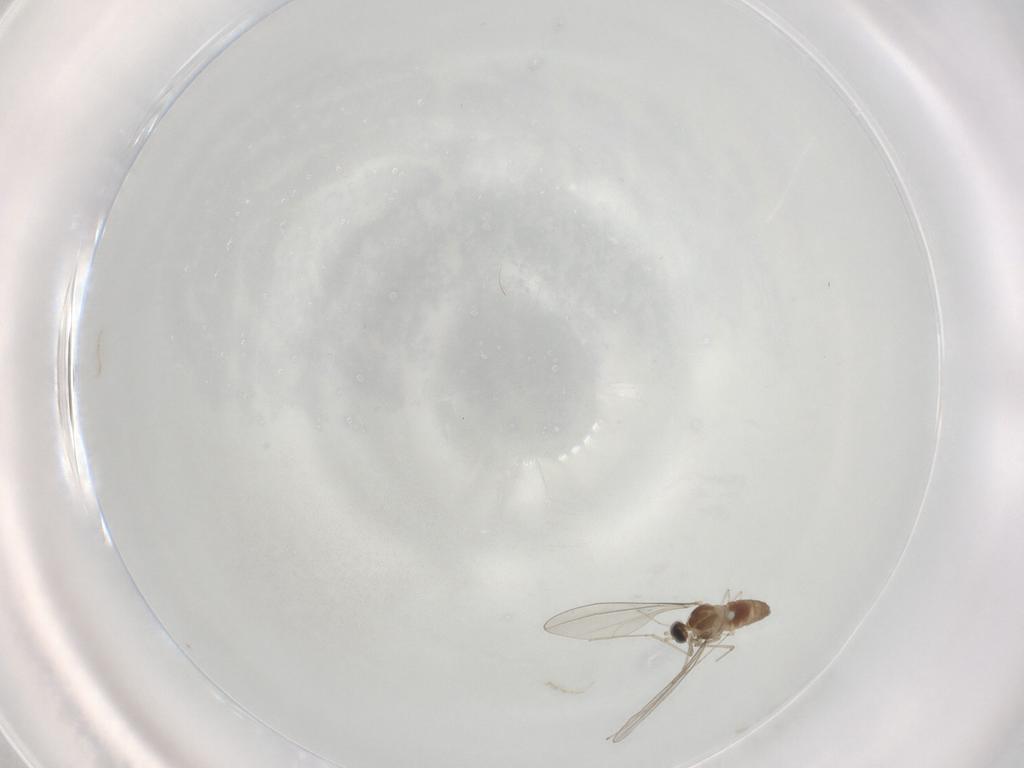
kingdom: Animalia
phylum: Arthropoda
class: Insecta
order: Diptera
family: Cecidomyiidae
